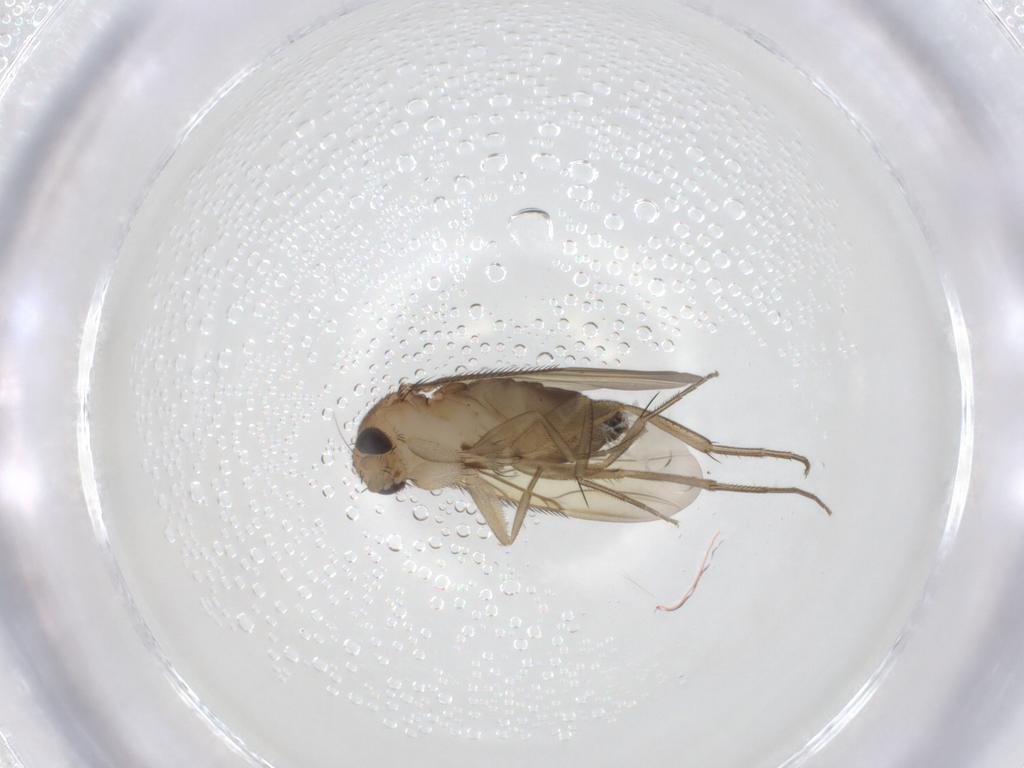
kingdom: Animalia
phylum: Arthropoda
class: Insecta
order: Diptera
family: Phoridae
